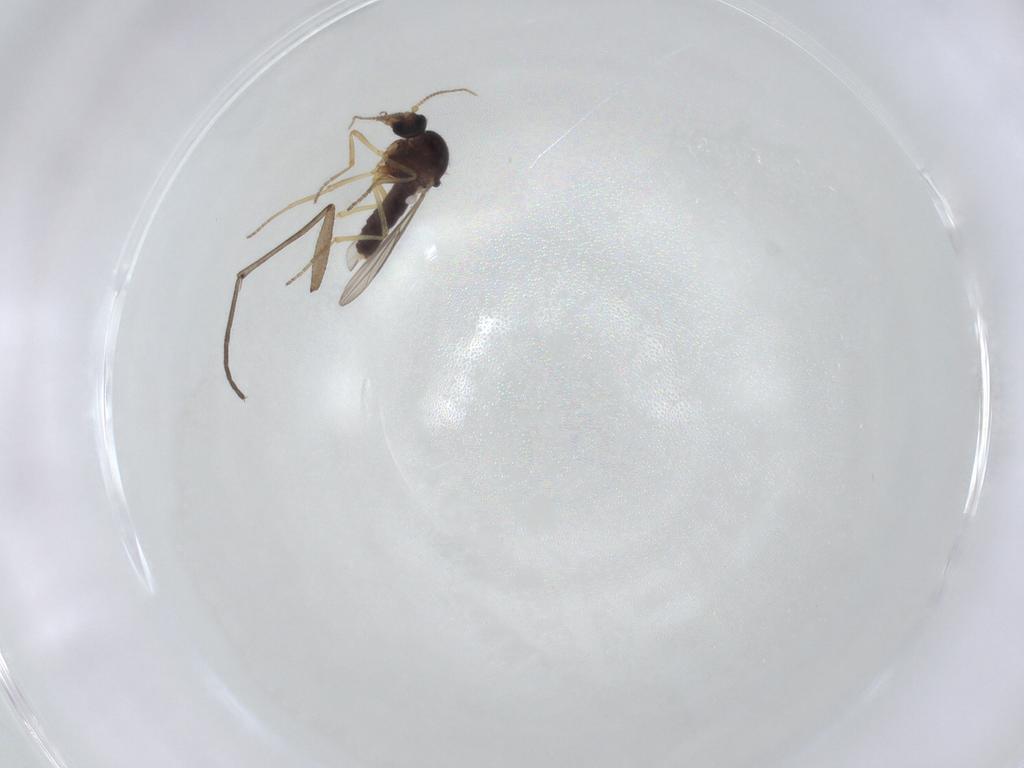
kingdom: Animalia
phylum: Arthropoda
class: Insecta
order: Diptera
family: Ceratopogonidae
